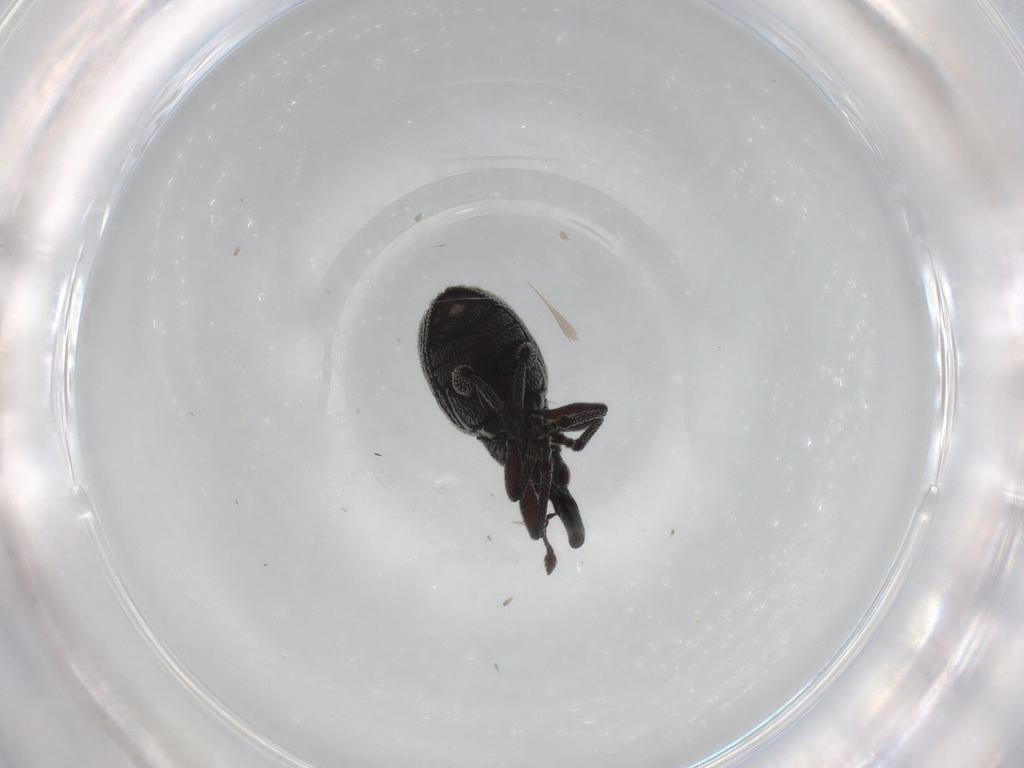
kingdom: Animalia
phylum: Arthropoda
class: Insecta
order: Coleoptera
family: Brentidae
